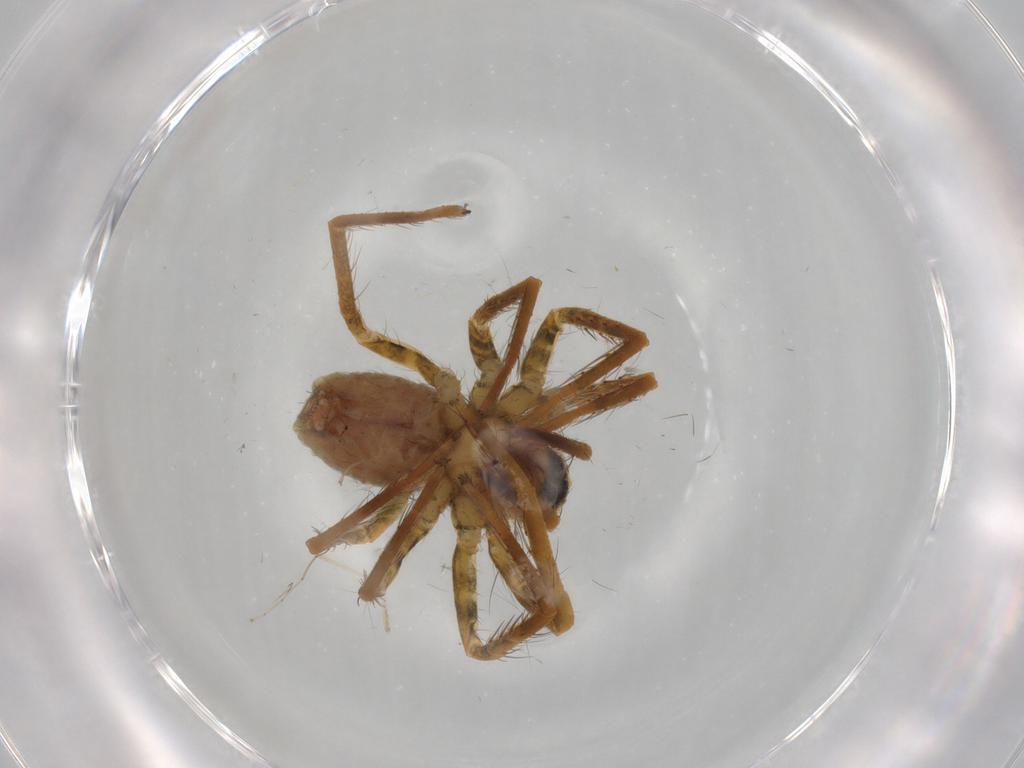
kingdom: Animalia
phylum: Arthropoda
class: Arachnida
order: Araneae
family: Trechaleidae
